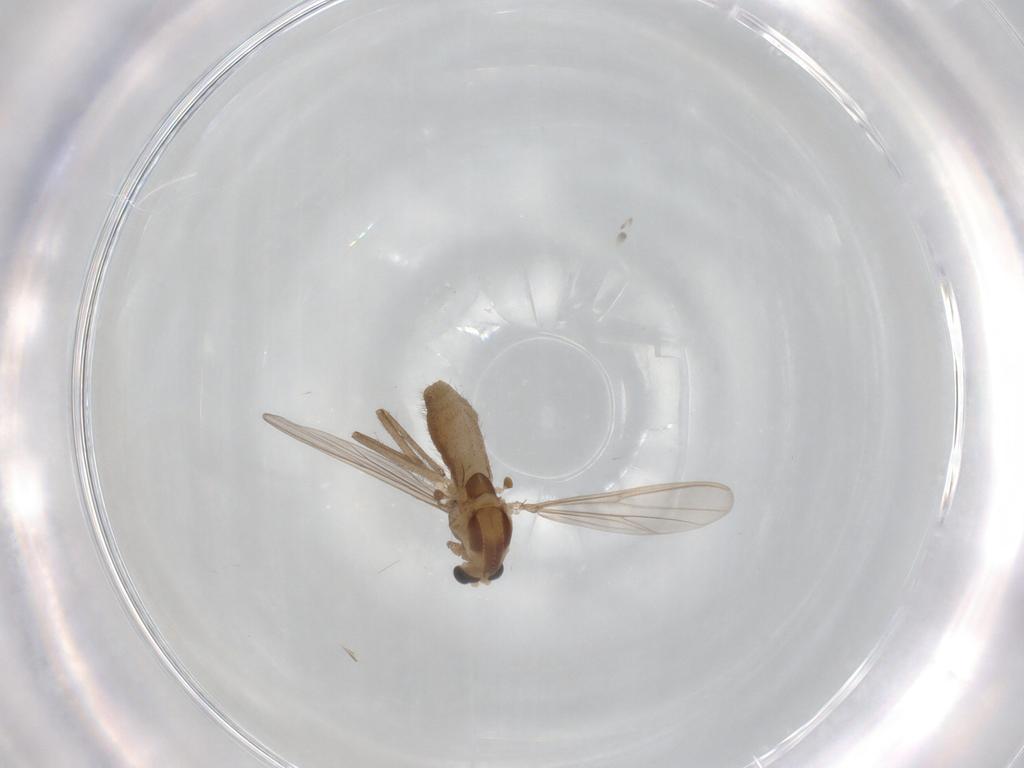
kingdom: Animalia
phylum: Arthropoda
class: Insecta
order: Diptera
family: Chironomidae
